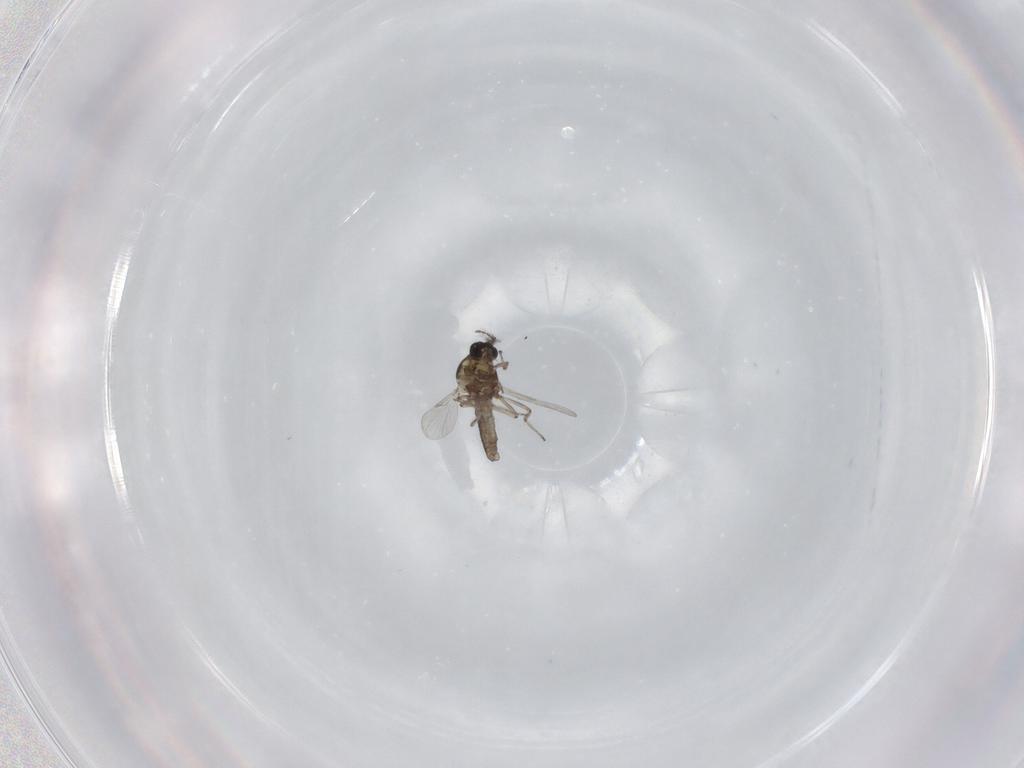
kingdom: Animalia
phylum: Arthropoda
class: Insecta
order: Diptera
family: Ceratopogonidae
